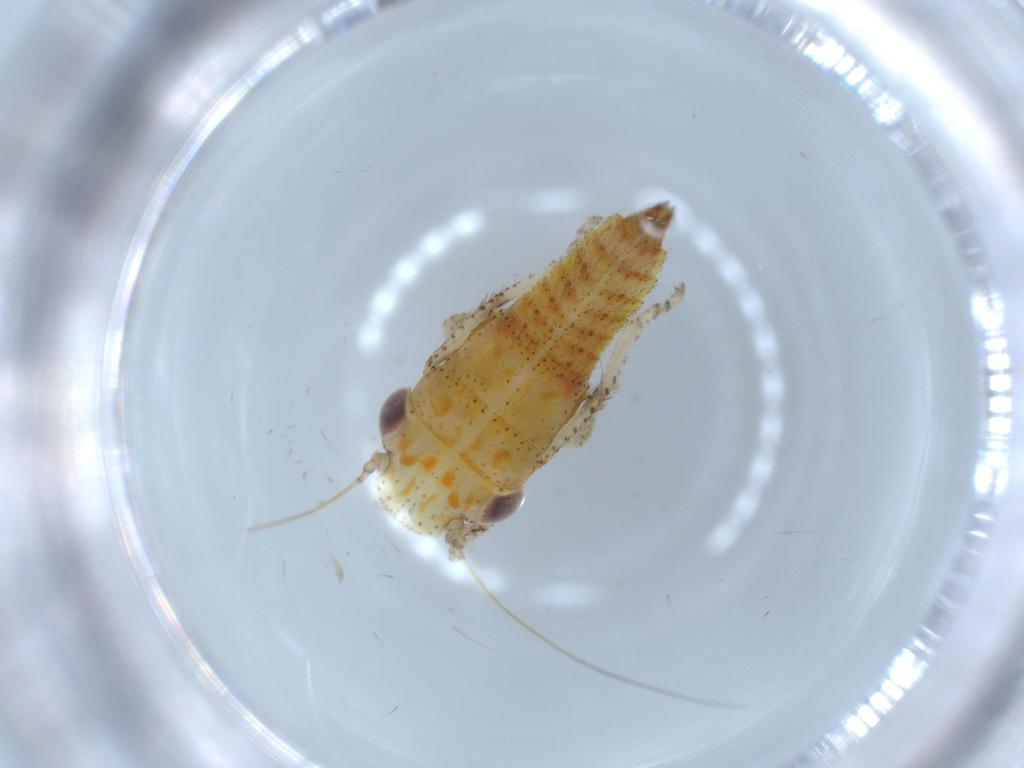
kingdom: Animalia
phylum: Arthropoda
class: Insecta
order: Hemiptera
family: Cicadellidae
